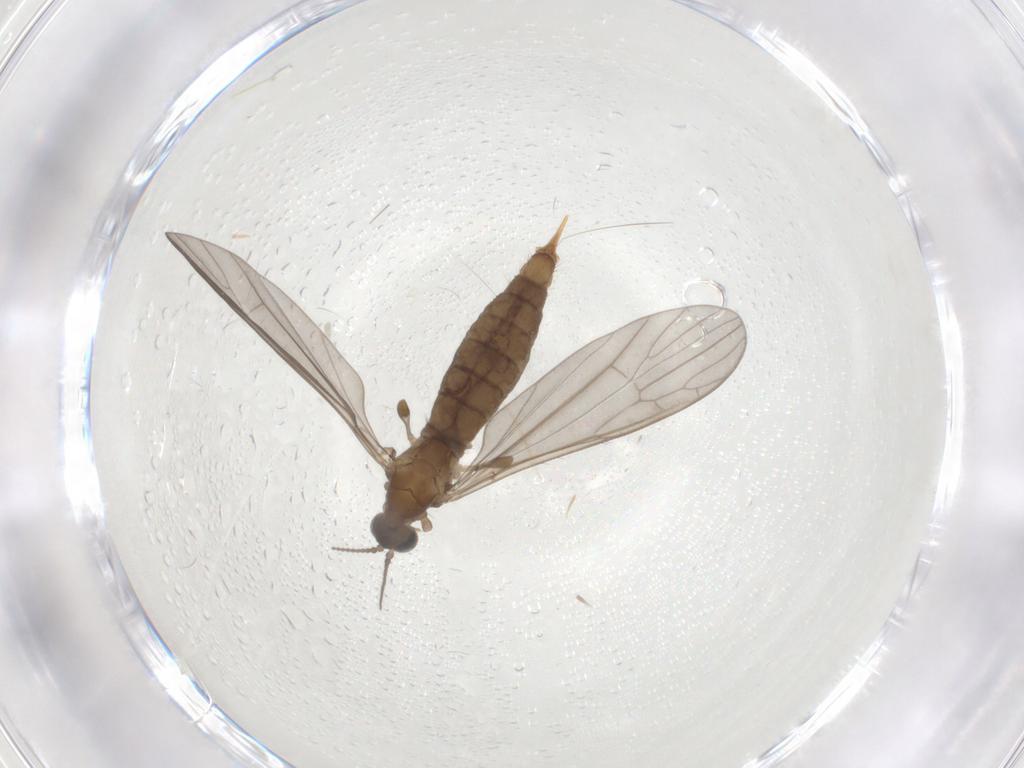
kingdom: Animalia
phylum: Arthropoda
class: Insecta
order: Diptera
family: Limoniidae
